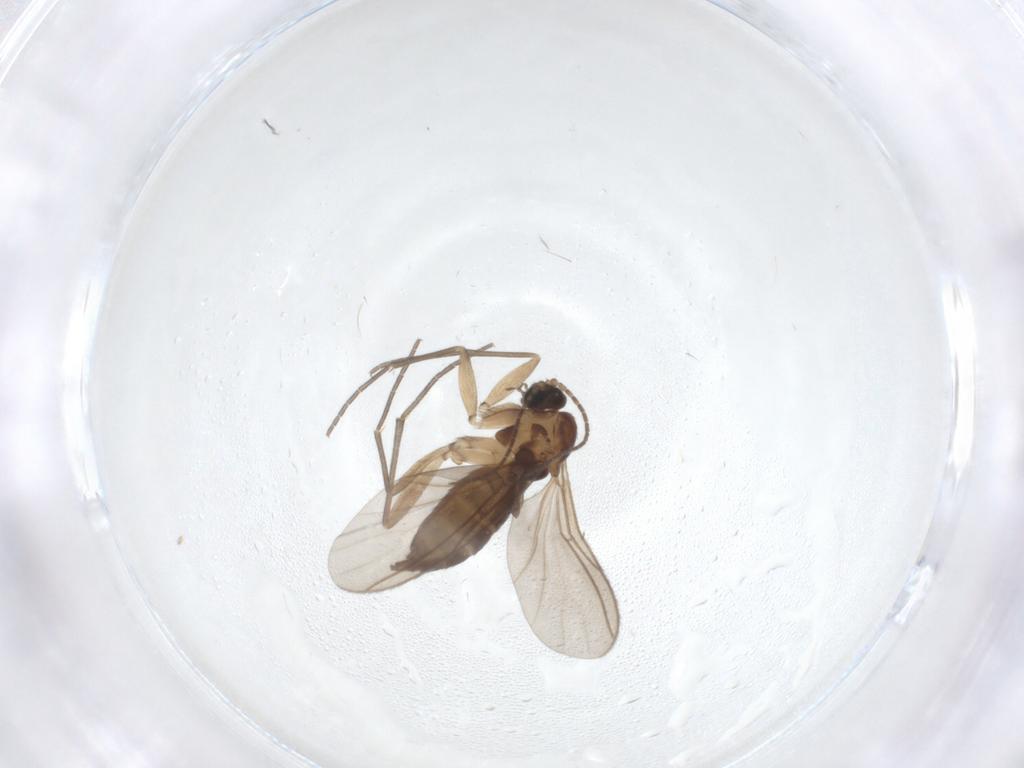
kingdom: Animalia
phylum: Arthropoda
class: Insecta
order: Diptera
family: Sciaridae
